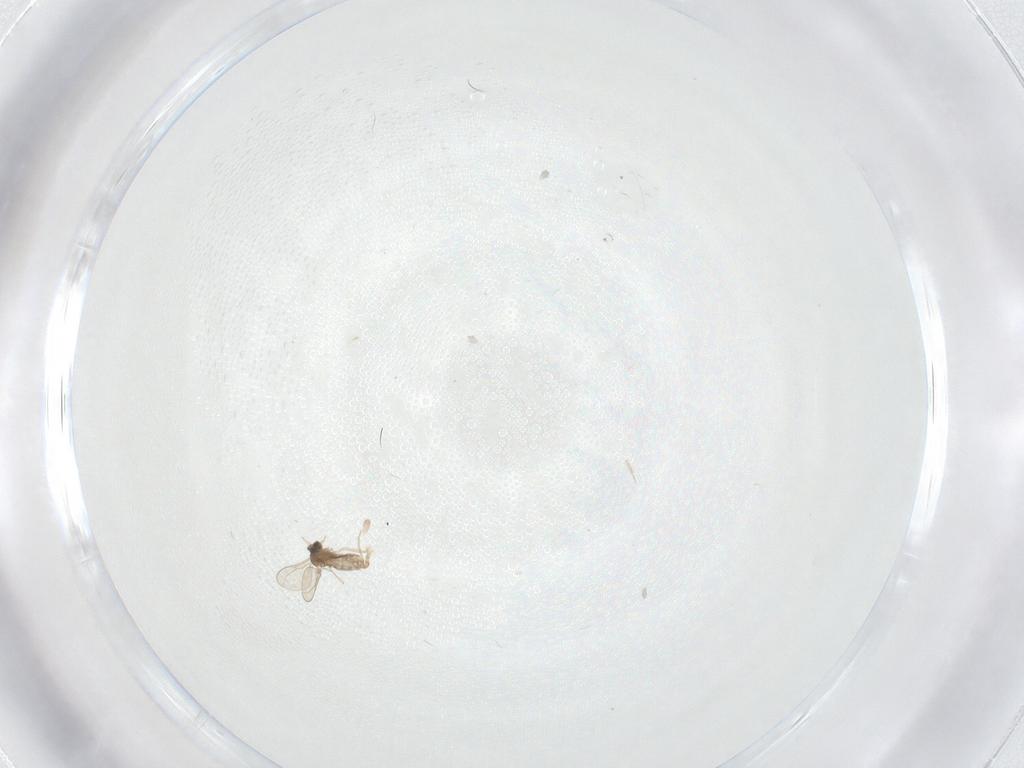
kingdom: Animalia
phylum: Arthropoda
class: Insecta
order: Diptera
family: Cecidomyiidae
